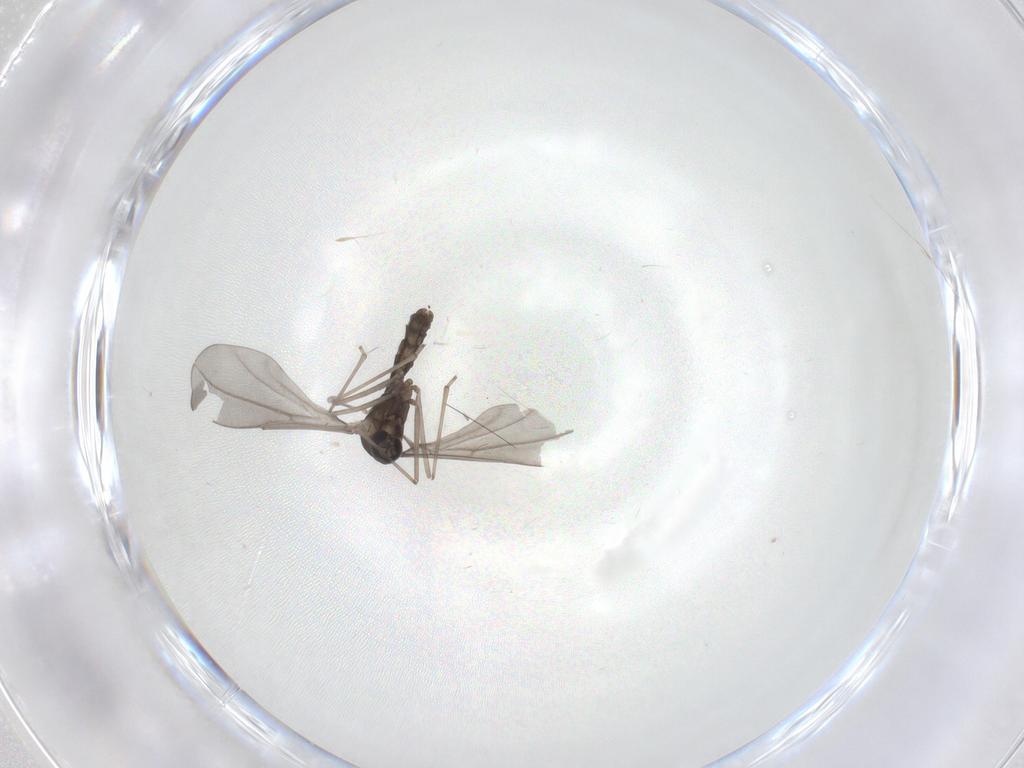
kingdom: Animalia
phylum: Arthropoda
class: Insecta
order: Diptera
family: Cecidomyiidae
